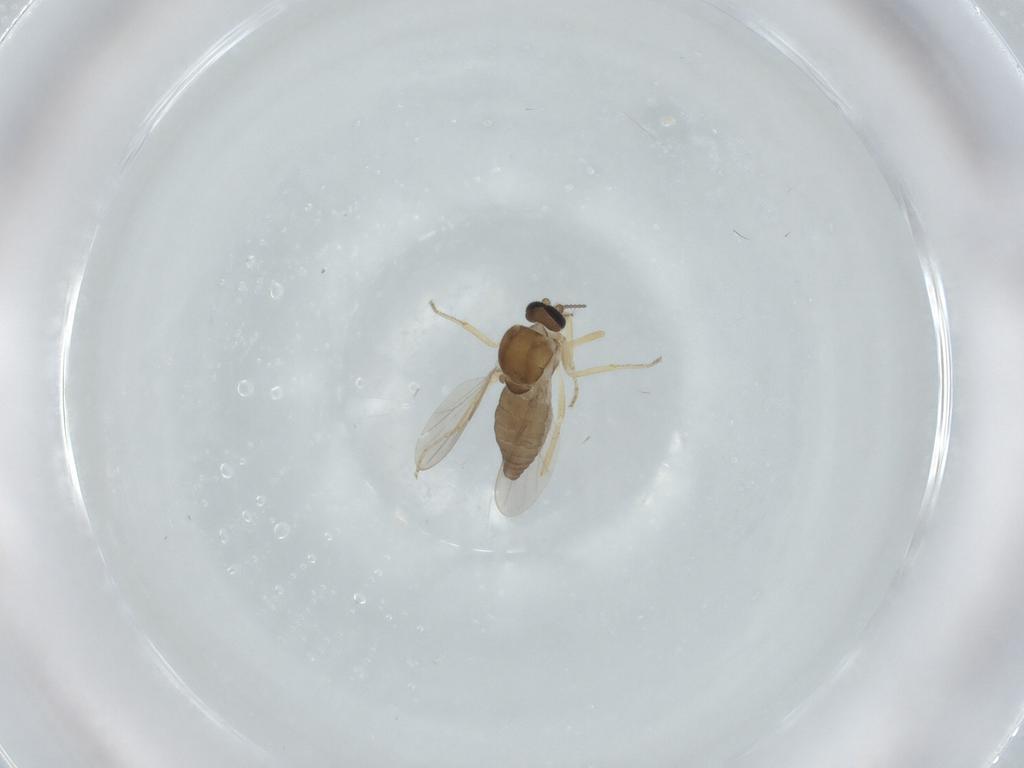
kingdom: Animalia
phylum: Arthropoda
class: Insecta
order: Diptera
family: Ceratopogonidae
